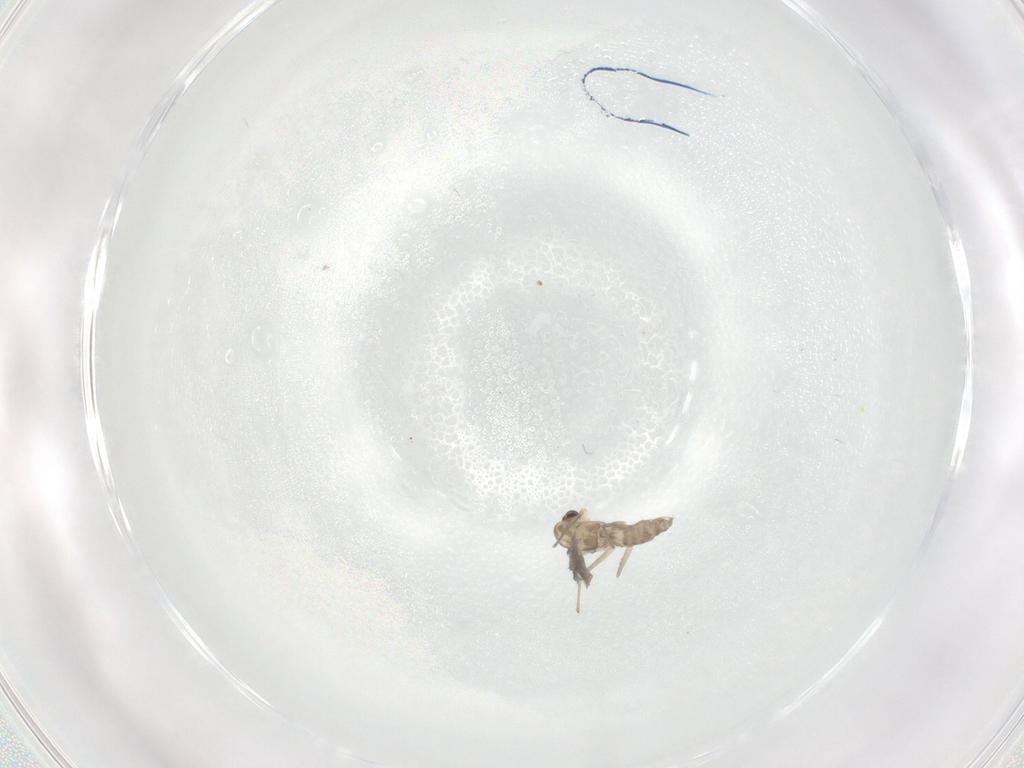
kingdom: Animalia
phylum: Arthropoda
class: Insecta
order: Diptera
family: Chironomidae
